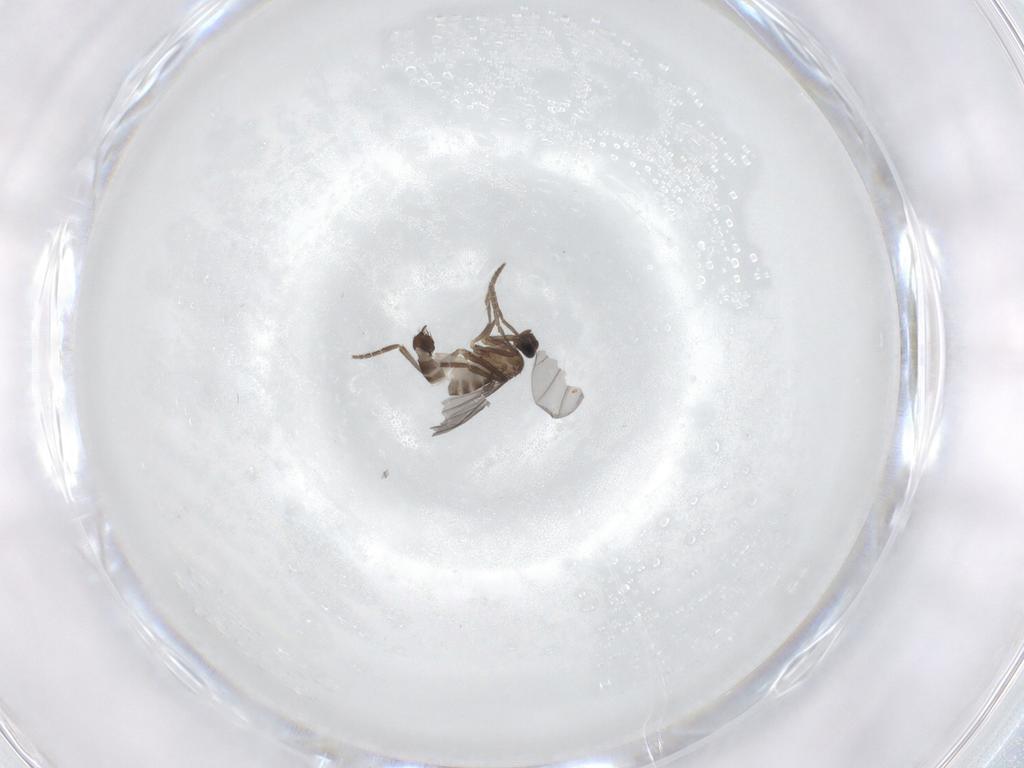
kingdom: Animalia
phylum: Arthropoda
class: Insecta
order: Diptera
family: Phoridae
